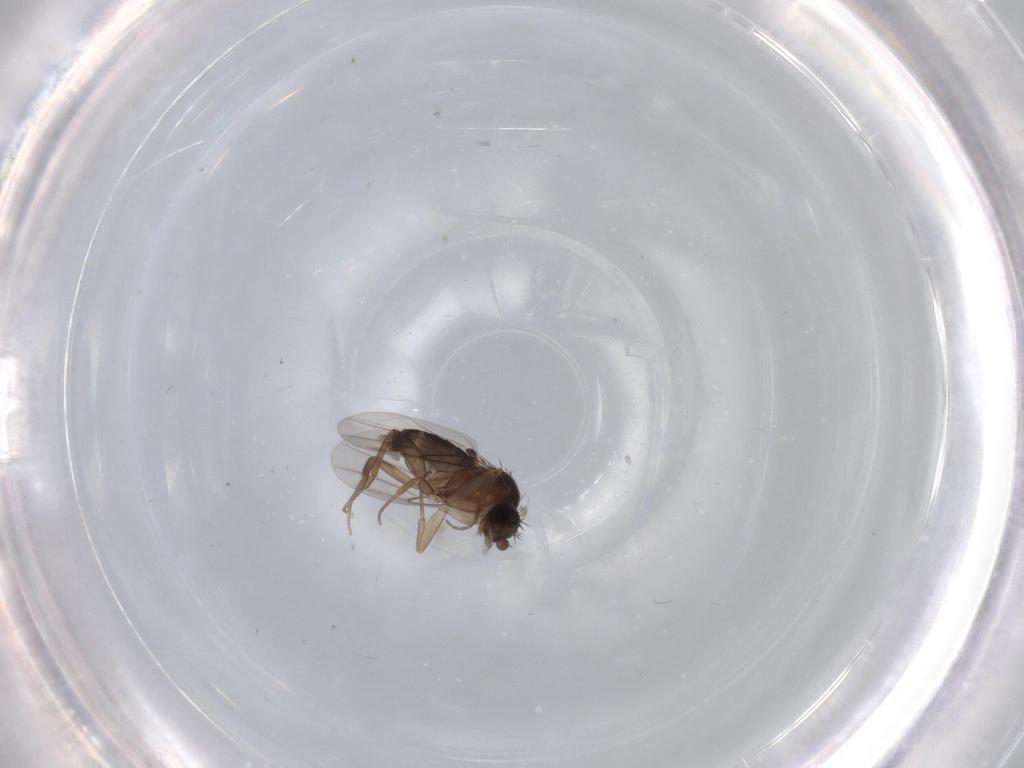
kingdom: Animalia
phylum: Arthropoda
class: Insecta
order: Diptera
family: Phoridae
